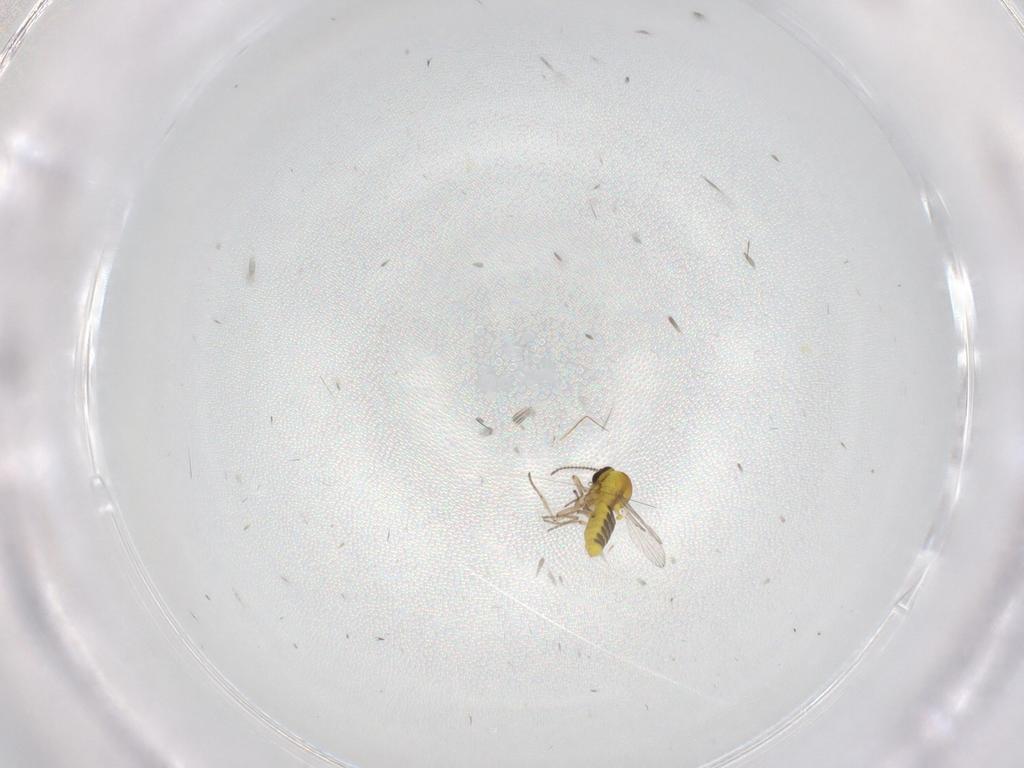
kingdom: Animalia
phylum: Arthropoda
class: Insecta
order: Diptera
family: Ceratopogonidae
